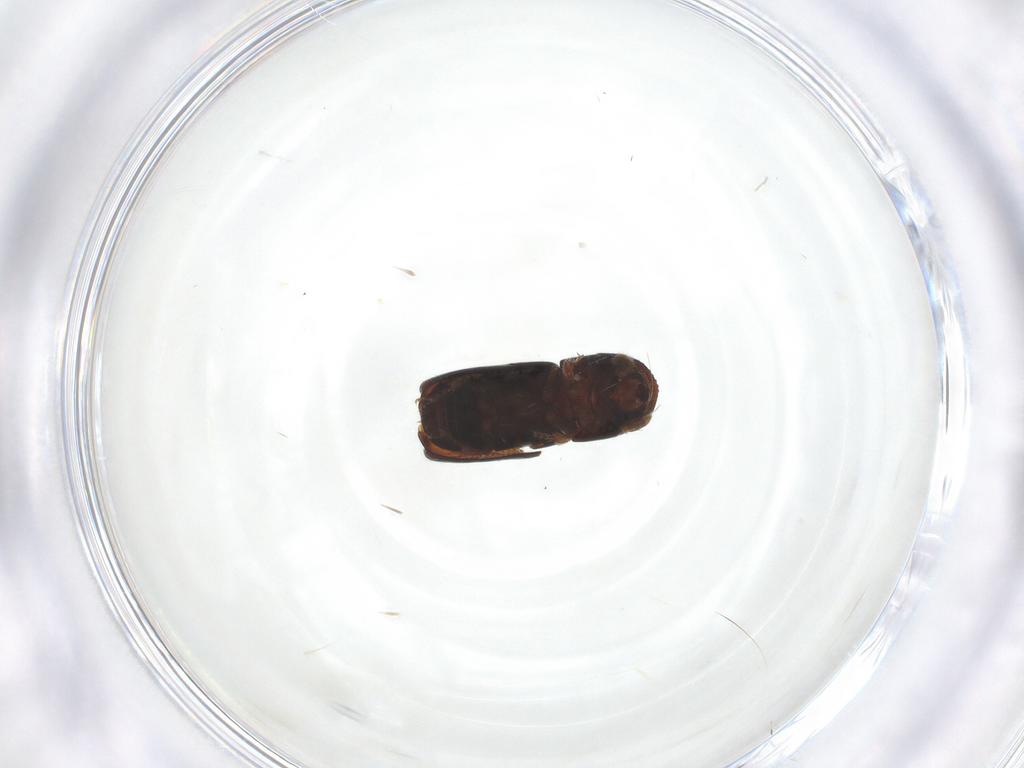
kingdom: Animalia
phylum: Arthropoda
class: Insecta
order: Coleoptera
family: Curculionidae
